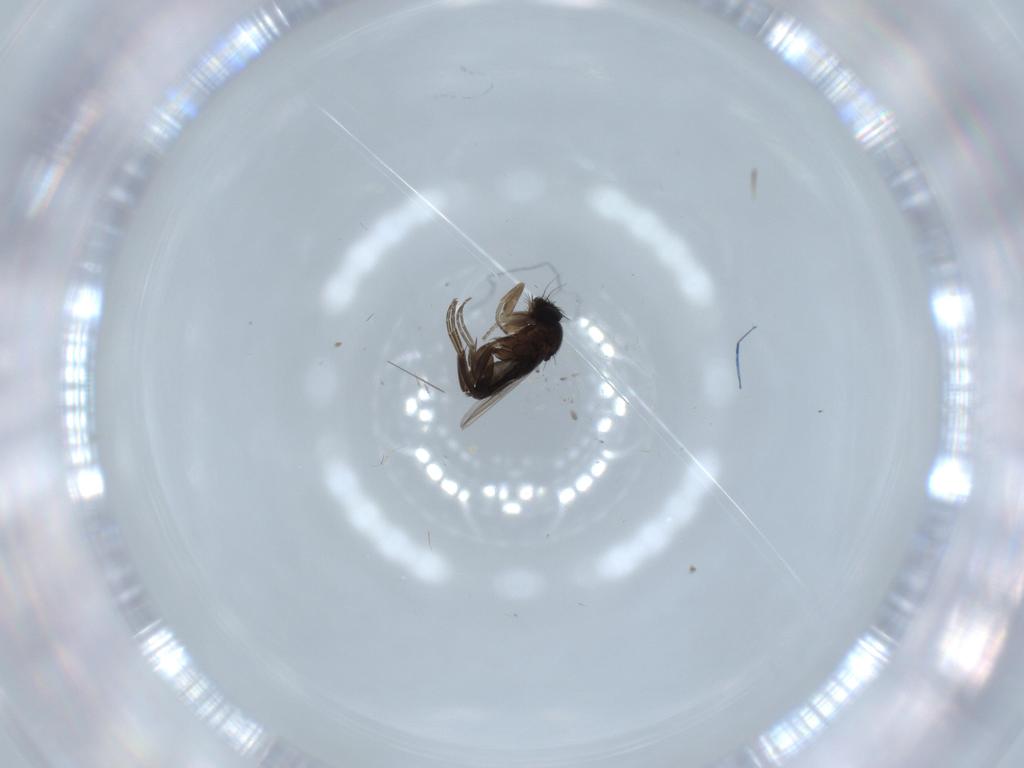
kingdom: Animalia
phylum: Arthropoda
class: Insecta
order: Diptera
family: Phoridae
